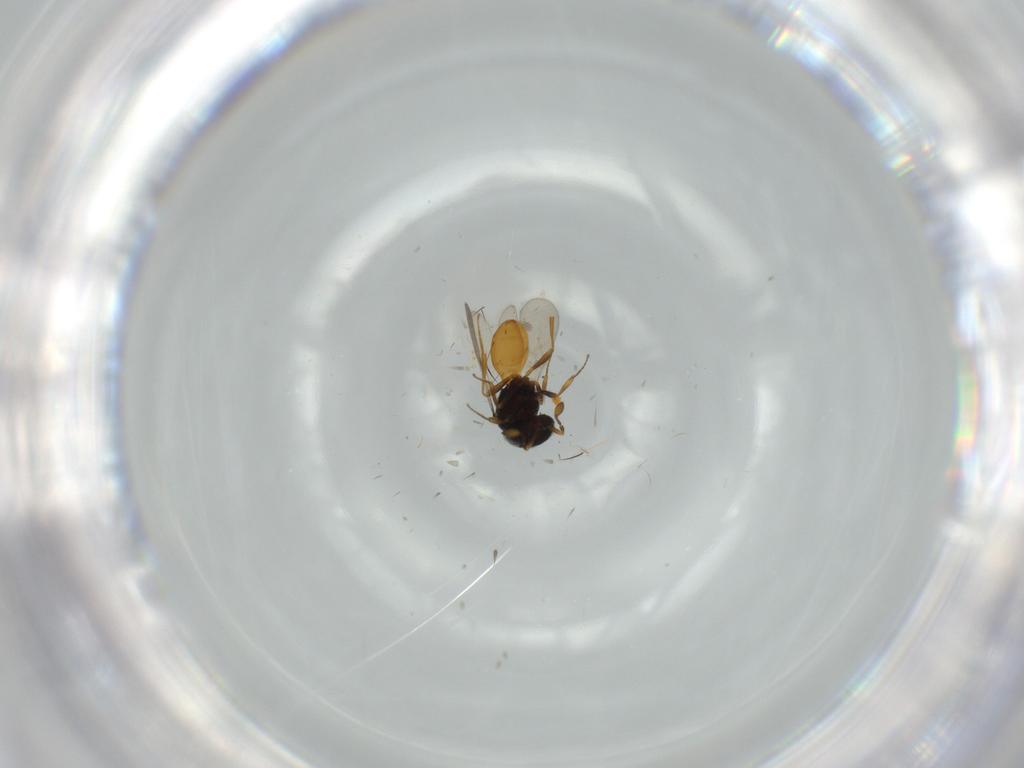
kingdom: Animalia
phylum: Arthropoda
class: Insecta
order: Hymenoptera
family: Scelionidae
